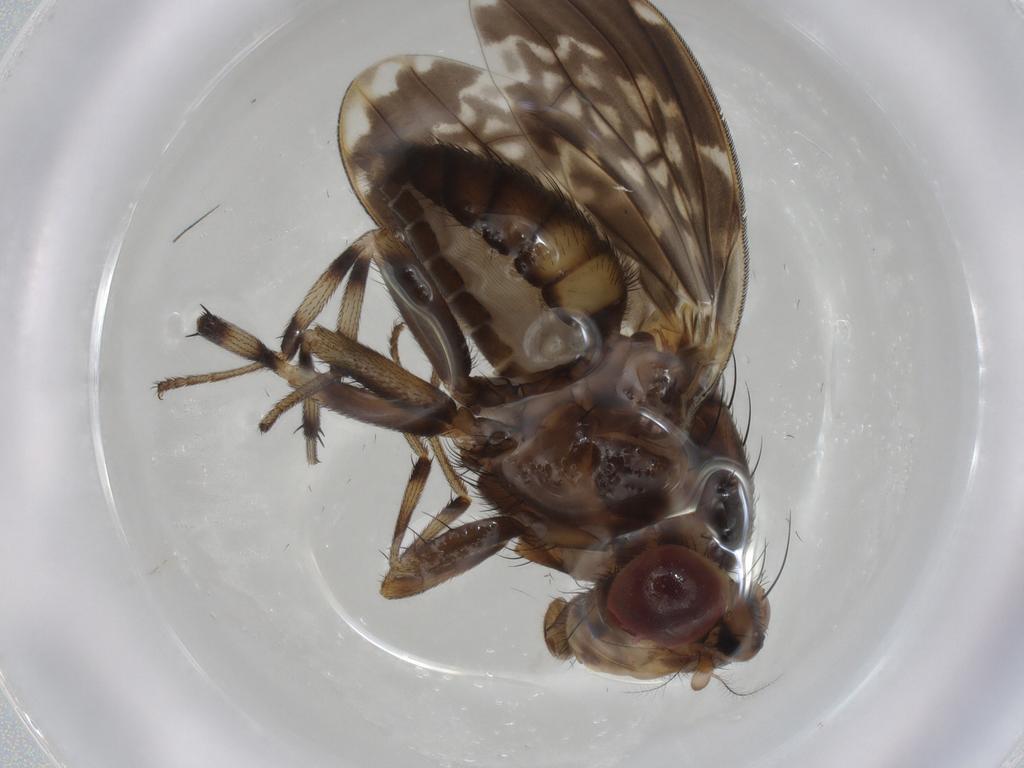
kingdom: Animalia
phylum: Arthropoda
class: Insecta
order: Diptera
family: Lauxaniidae
